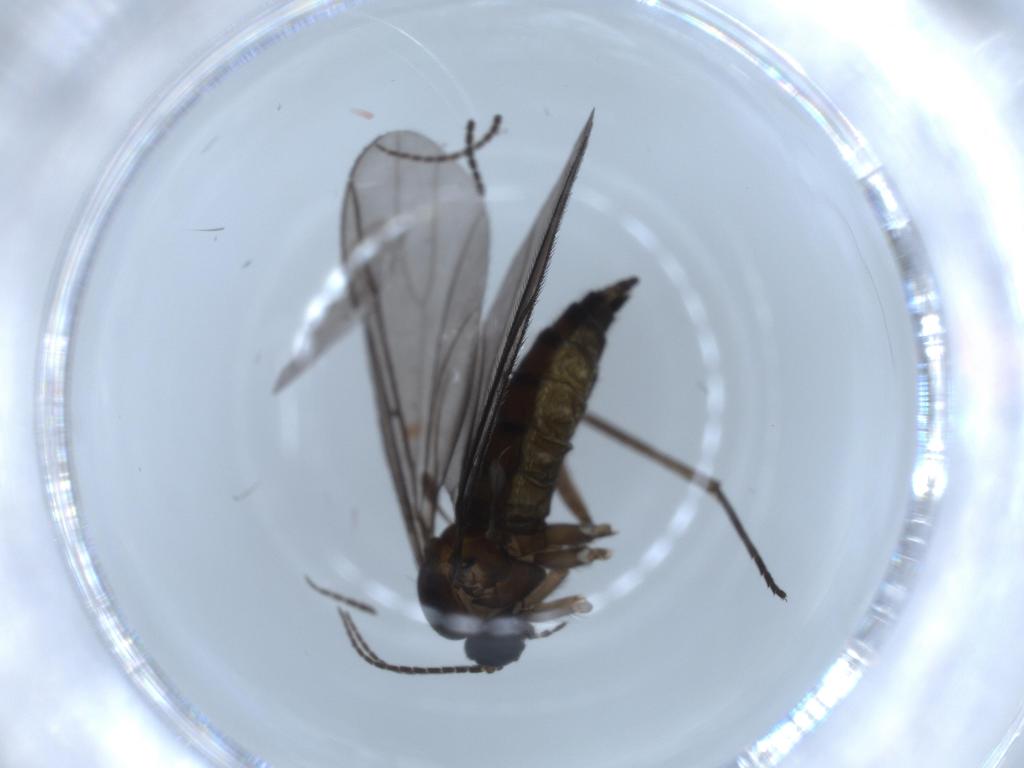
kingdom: Animalia
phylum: Arthropoda
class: Insecta
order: Diptera
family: Sciaridae
